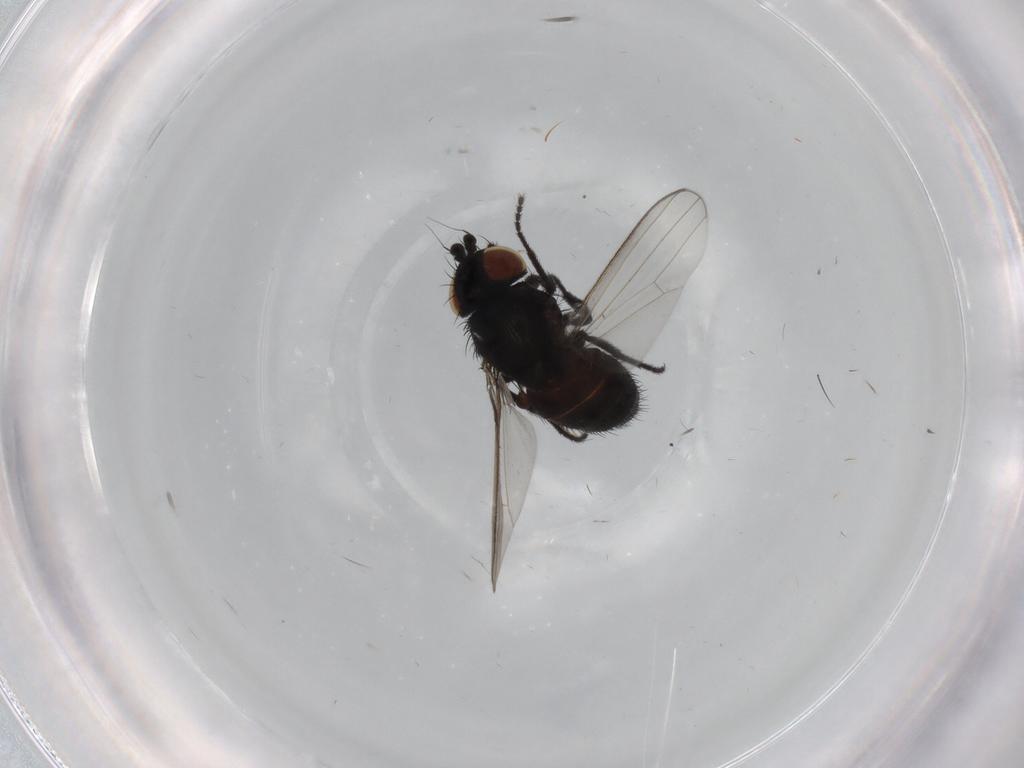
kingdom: Animalia
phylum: Arthropoda
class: Insecta
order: Diptera
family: Milichiidae
